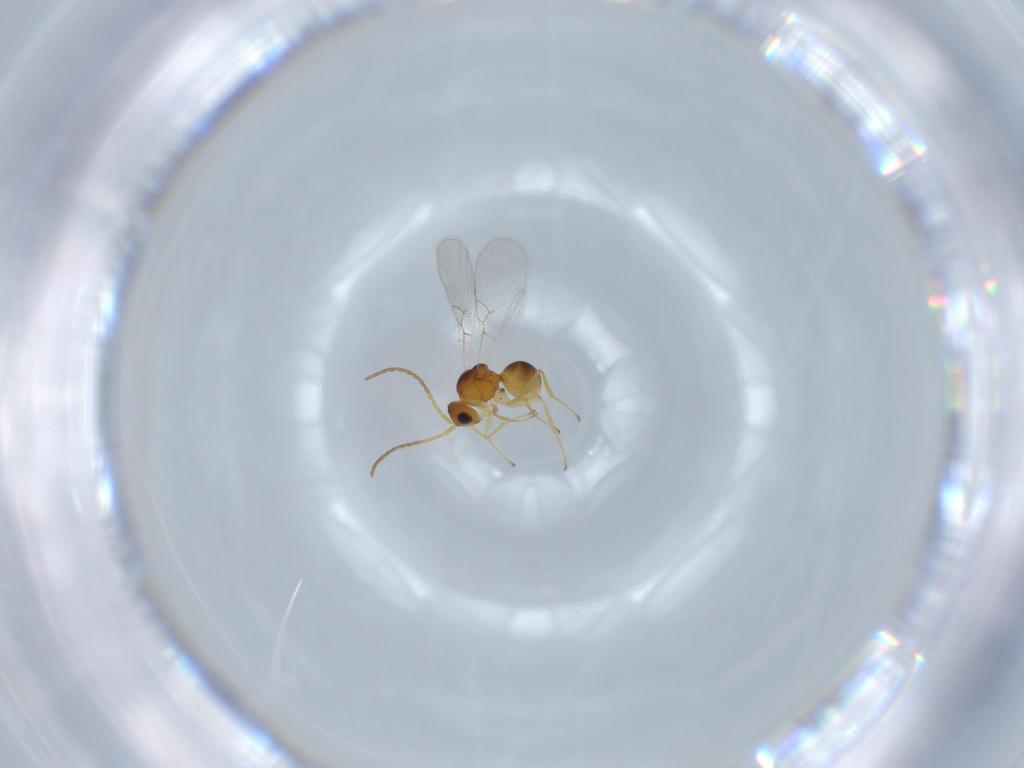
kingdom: Animalia
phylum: Arthropoda
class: Insecta
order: Hymenoptera
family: Figitidae
